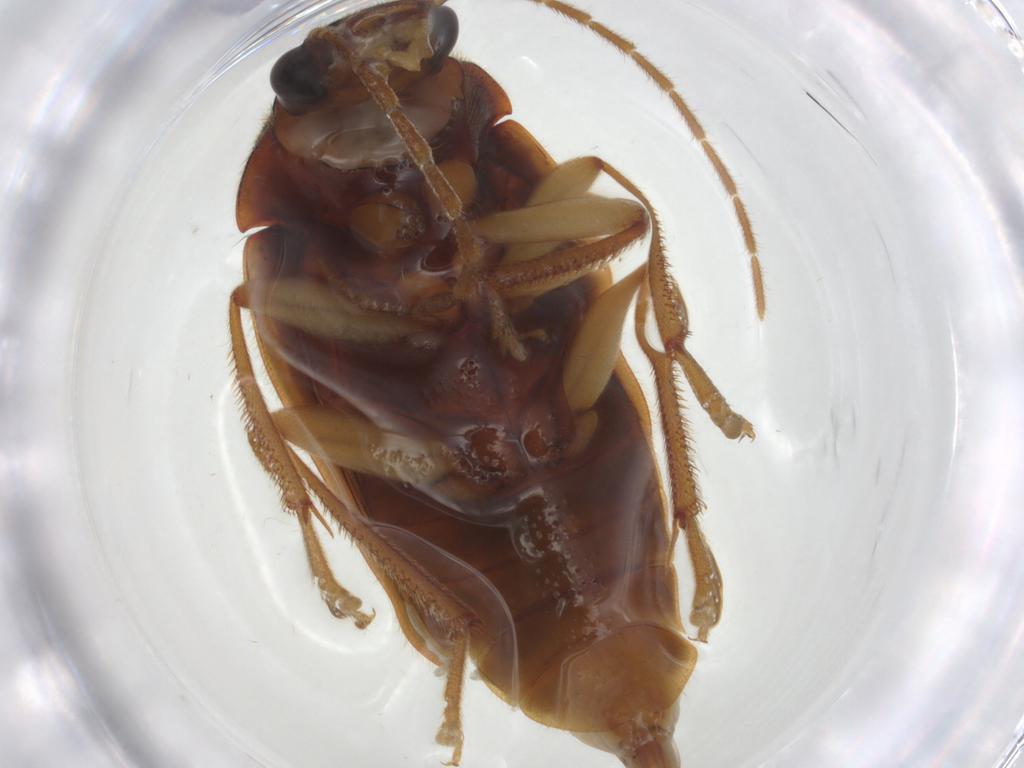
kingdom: Animalia
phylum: Arthropoda
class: Insecta
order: Coleoptera
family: Ptilodactylidae
